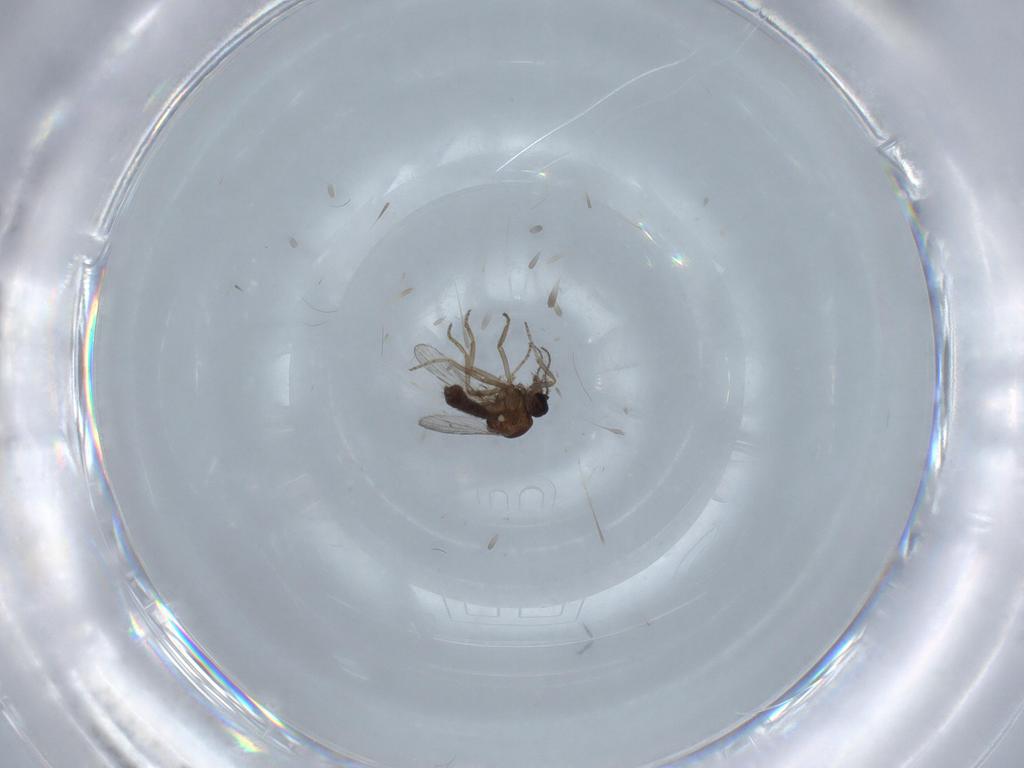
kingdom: Animalia
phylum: Arthropoda
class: Insecta
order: Diptera
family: Ceratopogonidae
